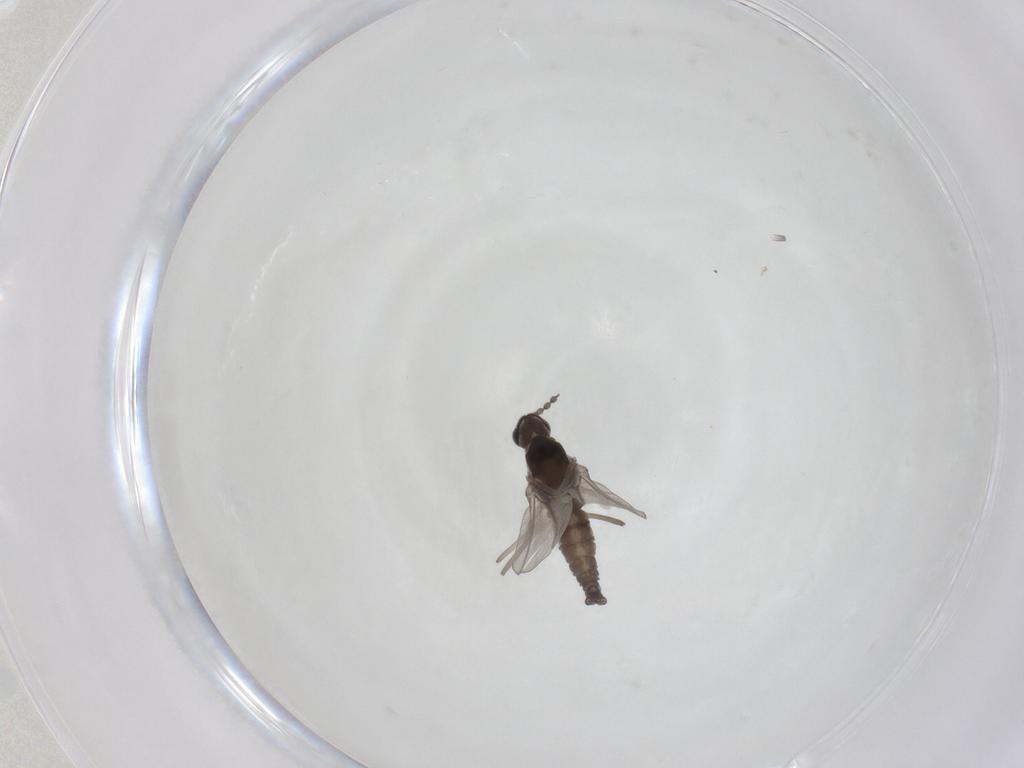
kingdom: Animalia
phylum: Arthropoda
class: Insecta
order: Diptera
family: Cecidomyiidae
